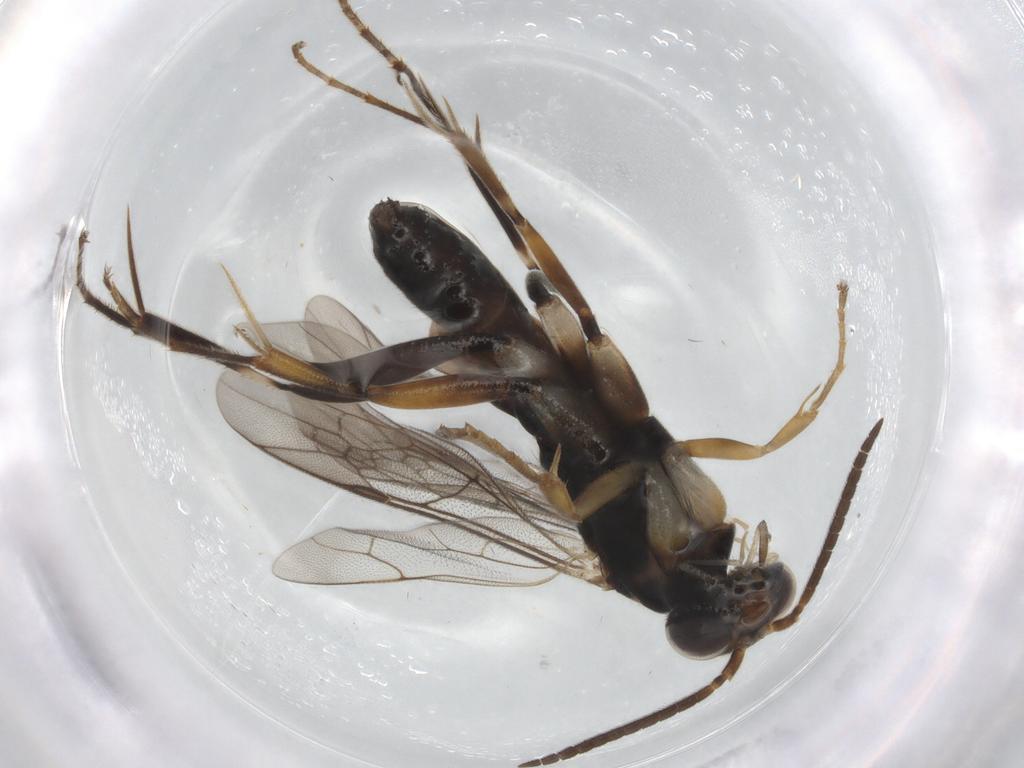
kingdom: Animalia
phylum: Arthropoda
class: Insecta
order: Hymenoptera
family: Pompilidae
